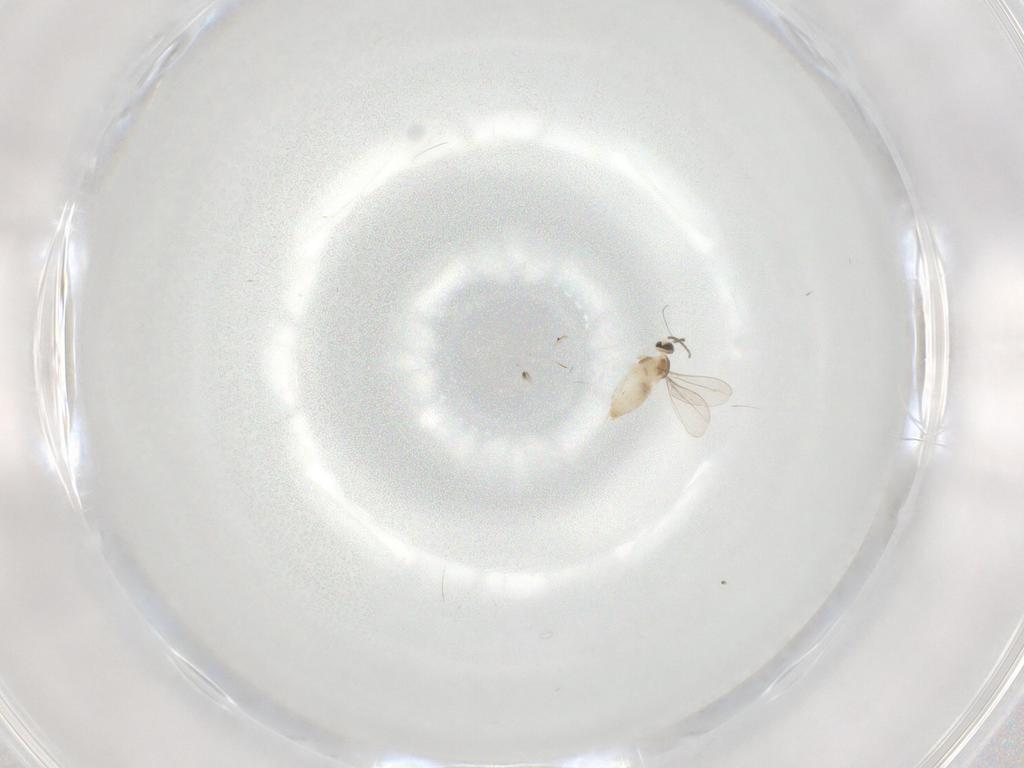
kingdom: Animalia
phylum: Arthropoda
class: Insecta
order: Diptera
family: Cecidomyiidae
